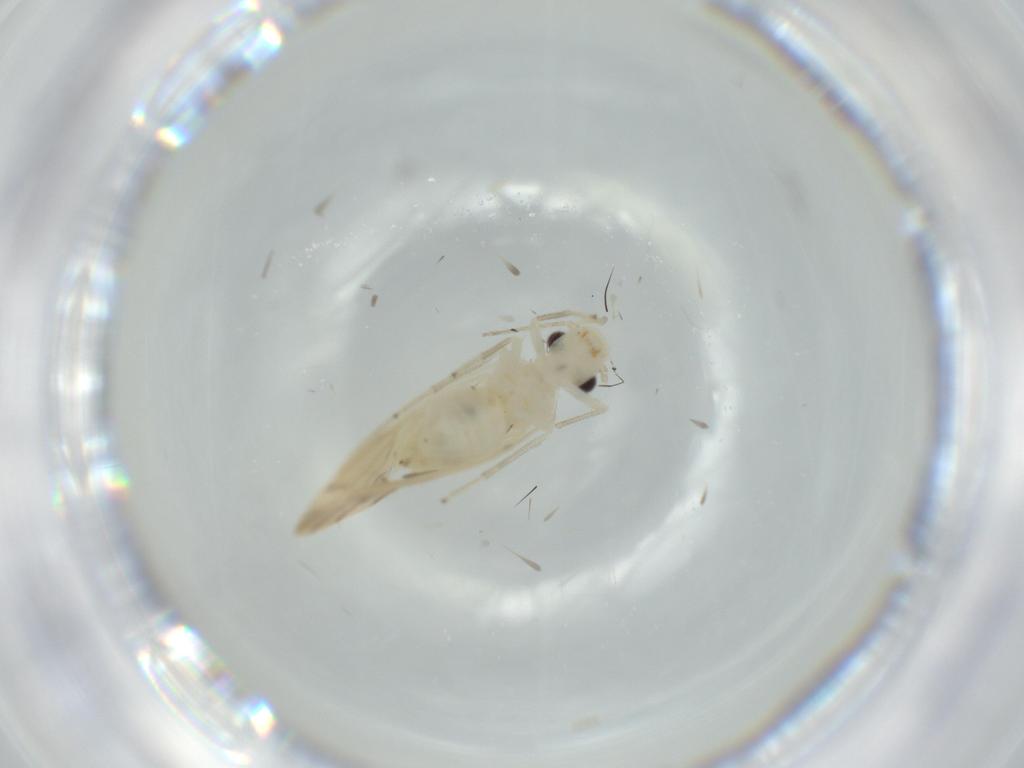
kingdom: Animalia
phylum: Arthropoda
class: Insecta
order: Psocodea
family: Caeciliusidae
